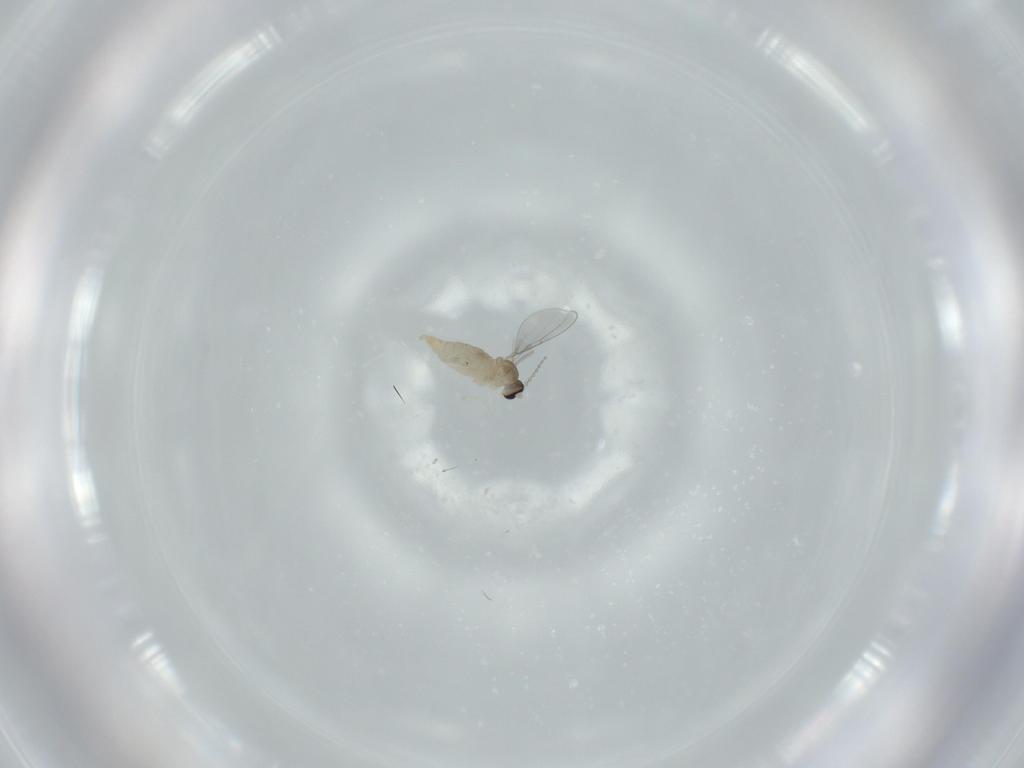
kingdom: Animalia
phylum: Arthropoda
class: Insecta
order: Diptera
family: Cecidomyiidae
